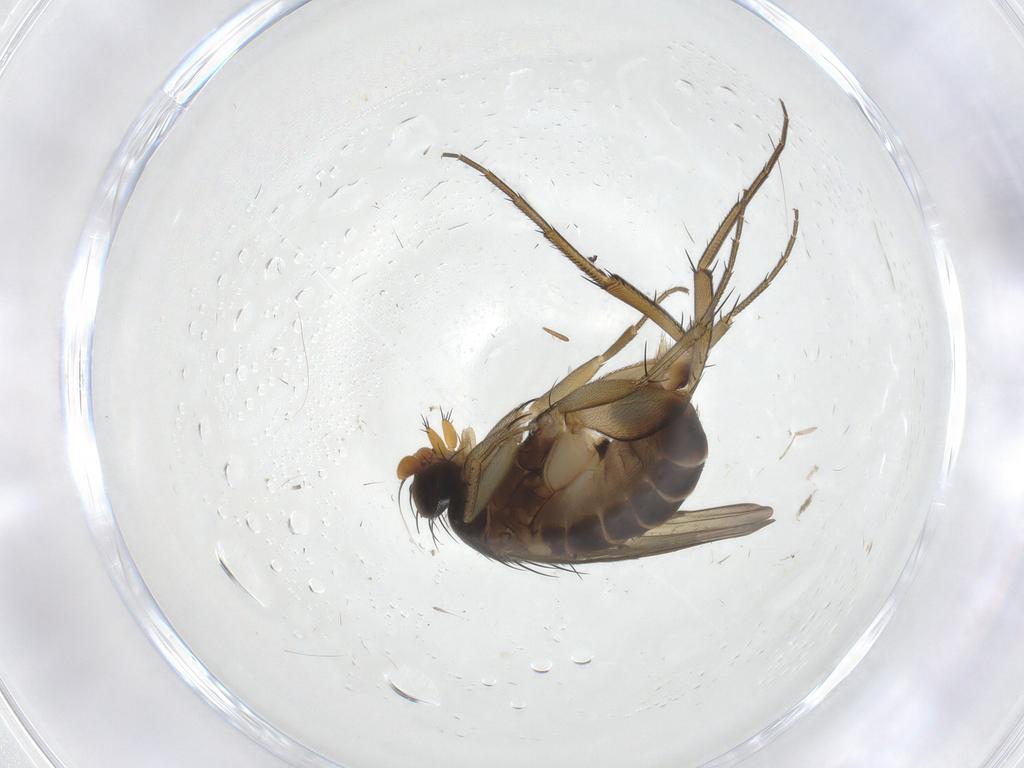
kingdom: Animalia
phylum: Arthropoda
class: Insecta
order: Diptera
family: Phoridae
